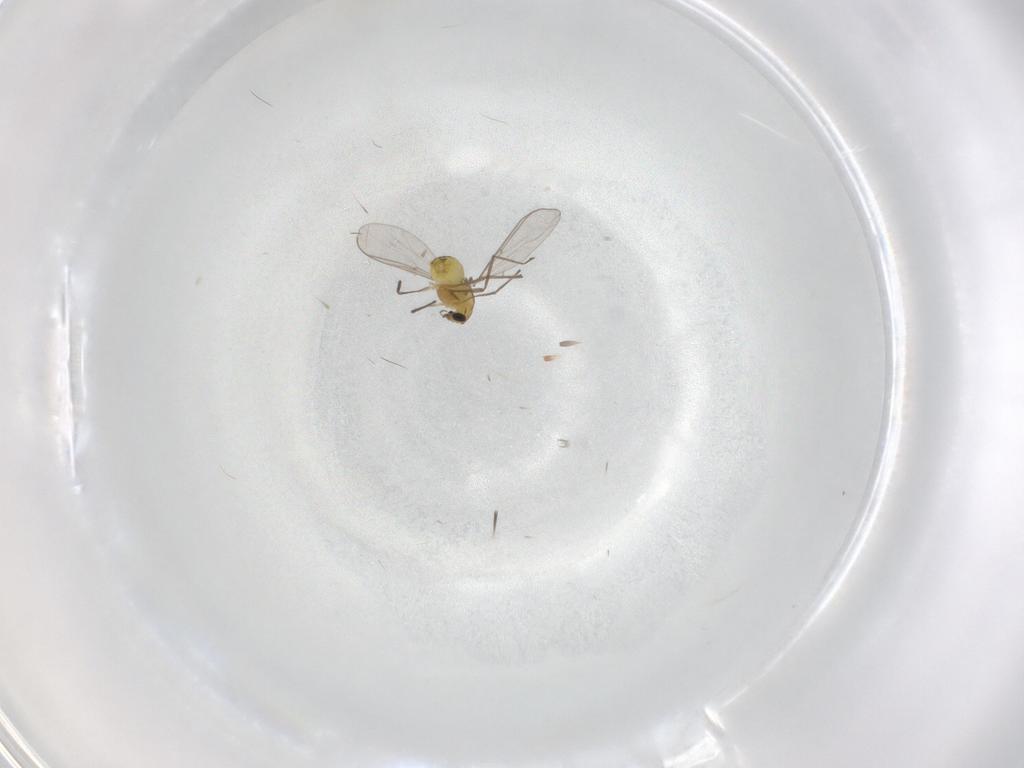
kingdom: Animalia
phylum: Arthropoda
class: Insecta
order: Diptera
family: Chironomidae
